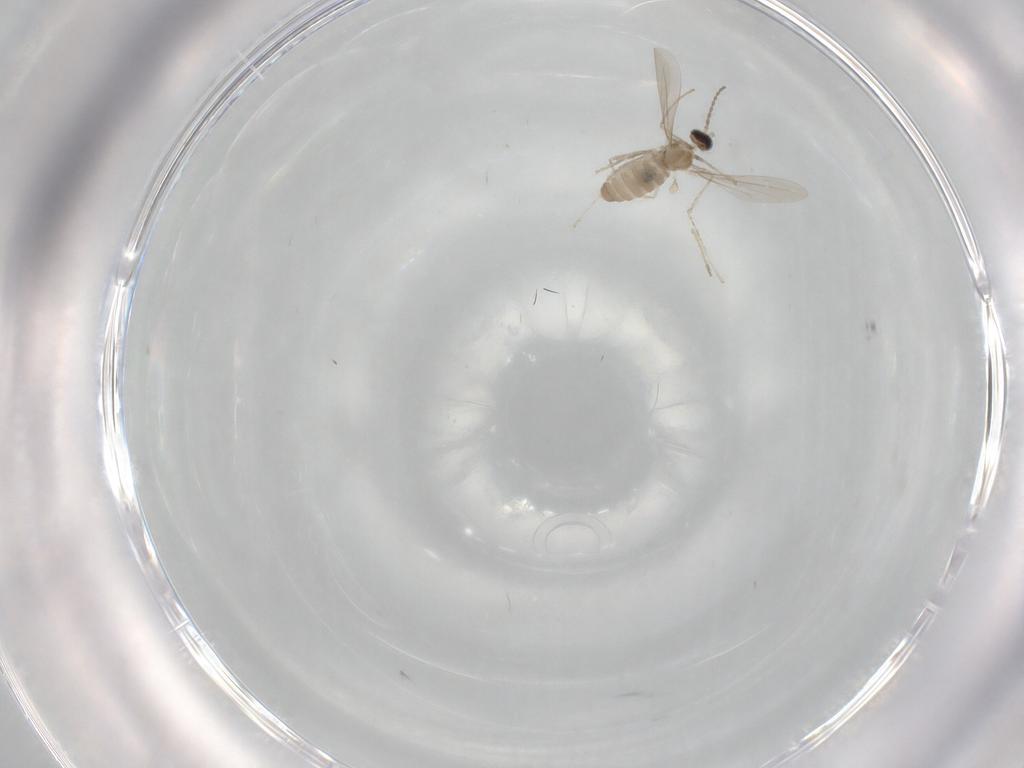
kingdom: Animalia
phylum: Arthropoda
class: Insecta
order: Diptera
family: Cecidomyiidae
